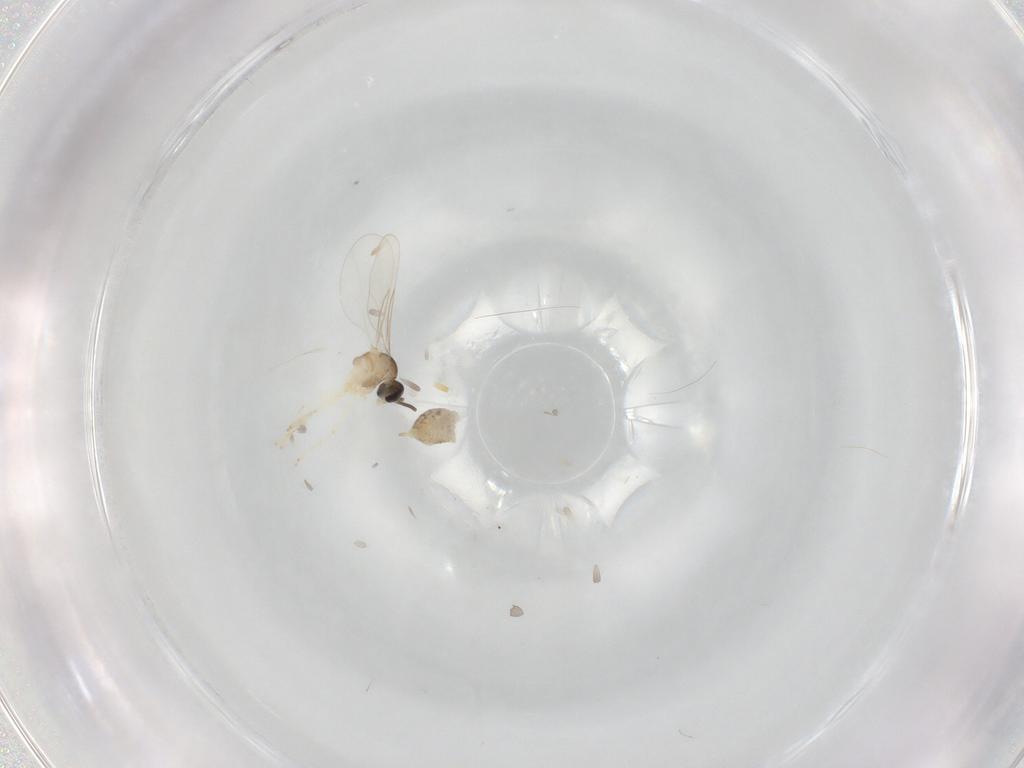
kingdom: Animalia
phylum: Arthropoda
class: Insecta
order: Diptera
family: Cecidomyiidae
